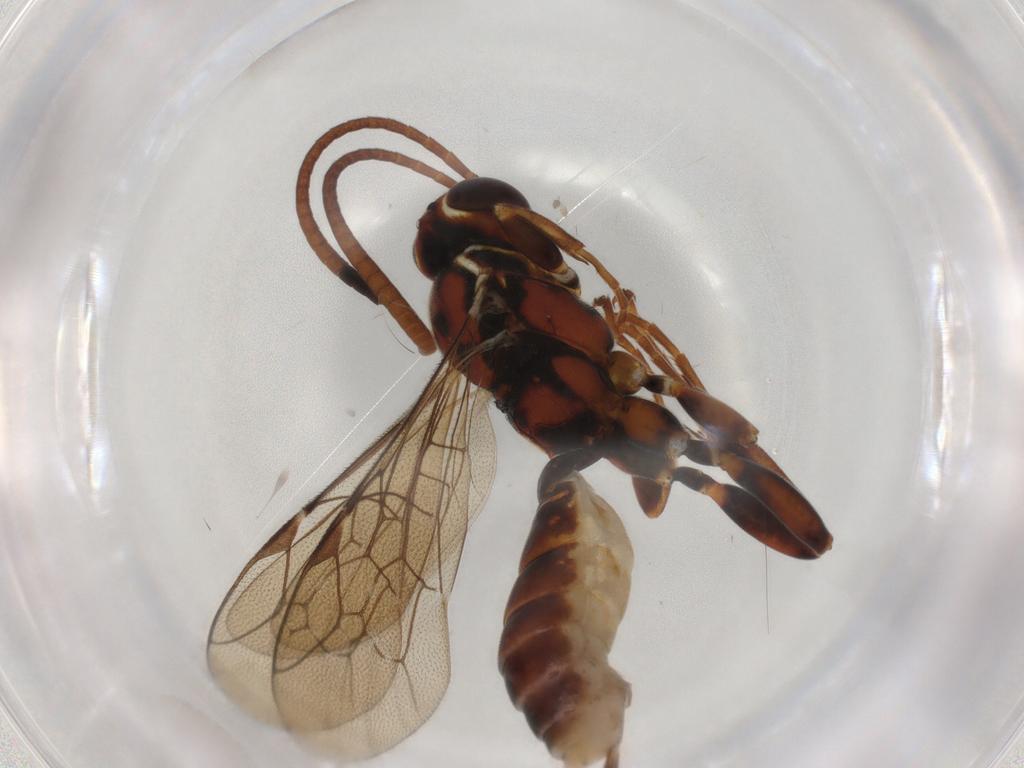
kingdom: Animalia
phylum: Arthropoda
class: Insecta
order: Hymenoptera
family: Ichneumonidae
